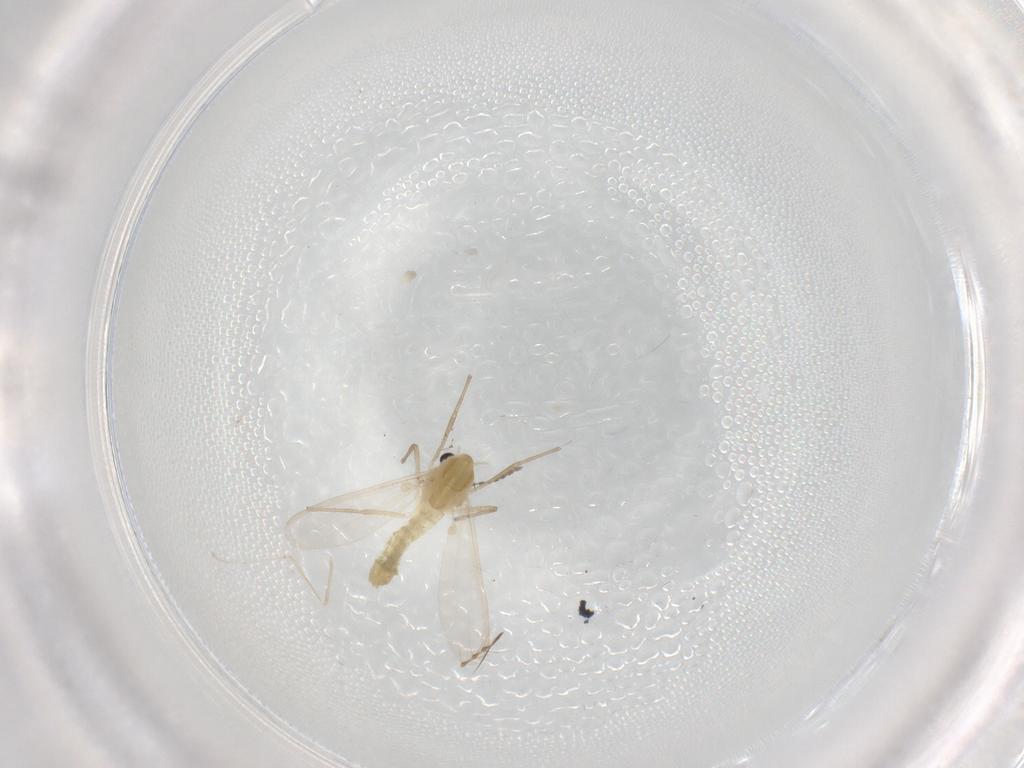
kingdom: Animalia
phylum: Arthropoda
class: Insecta
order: Diptera
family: Chironomidae
